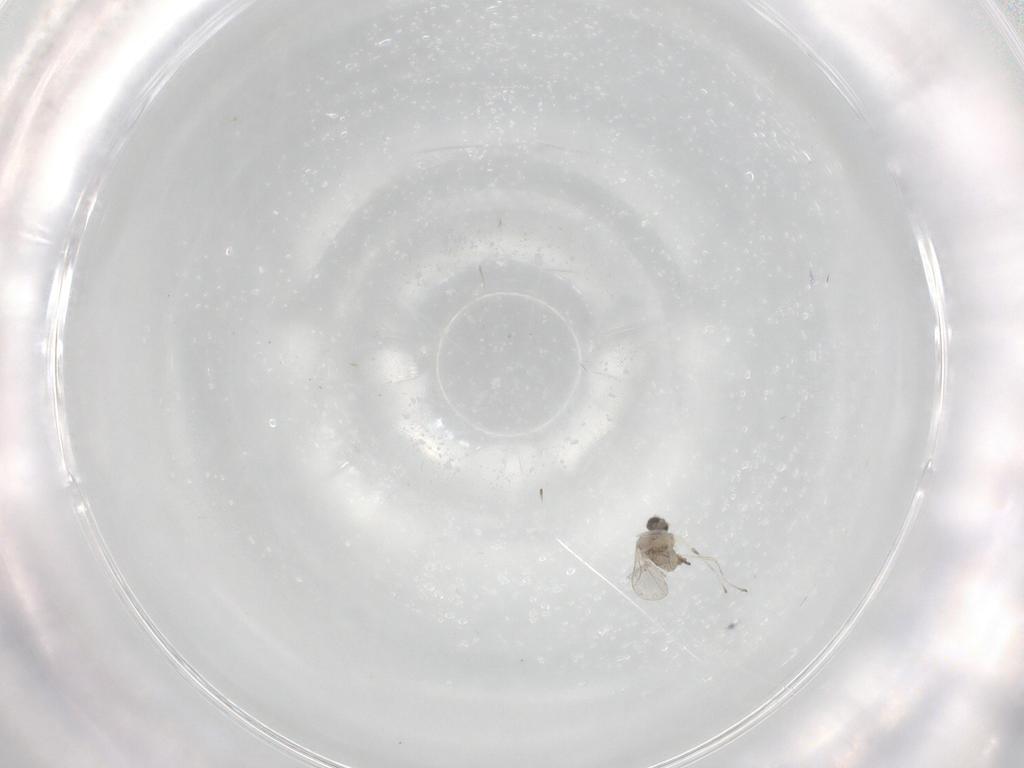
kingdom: Animalia
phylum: Arthropoda
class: Insecta
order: Diptera
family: Cecidomyiidae
